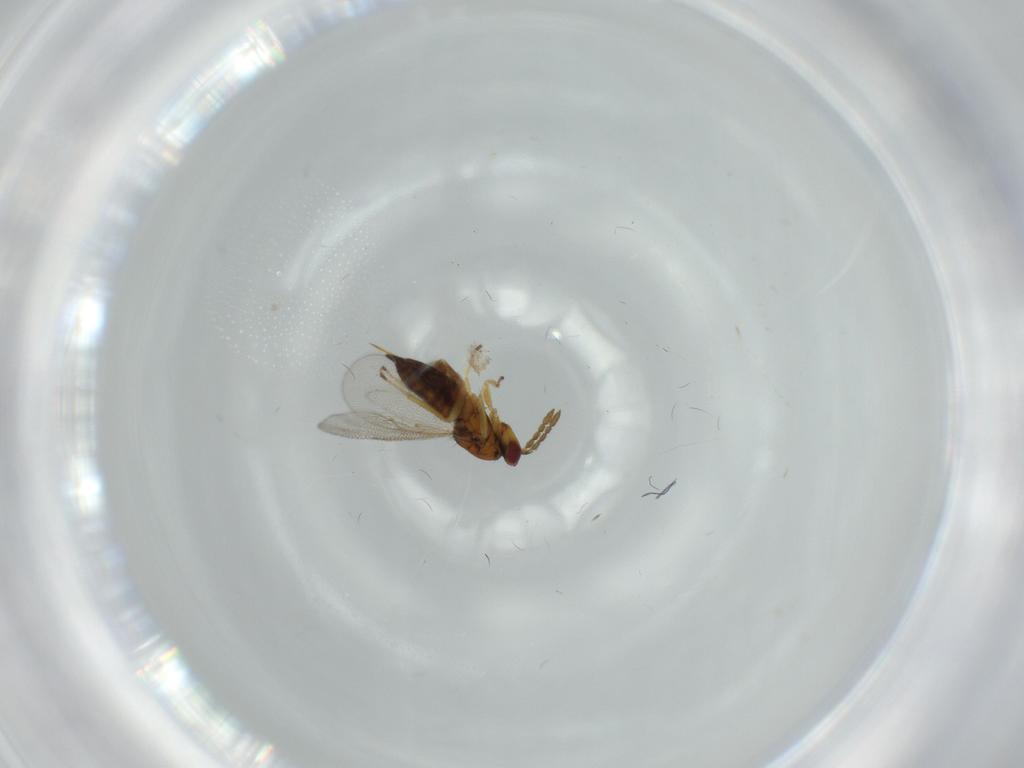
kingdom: Animalia
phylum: Arthropoda
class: Insecta
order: Hymenoptera
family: Eulophidae
